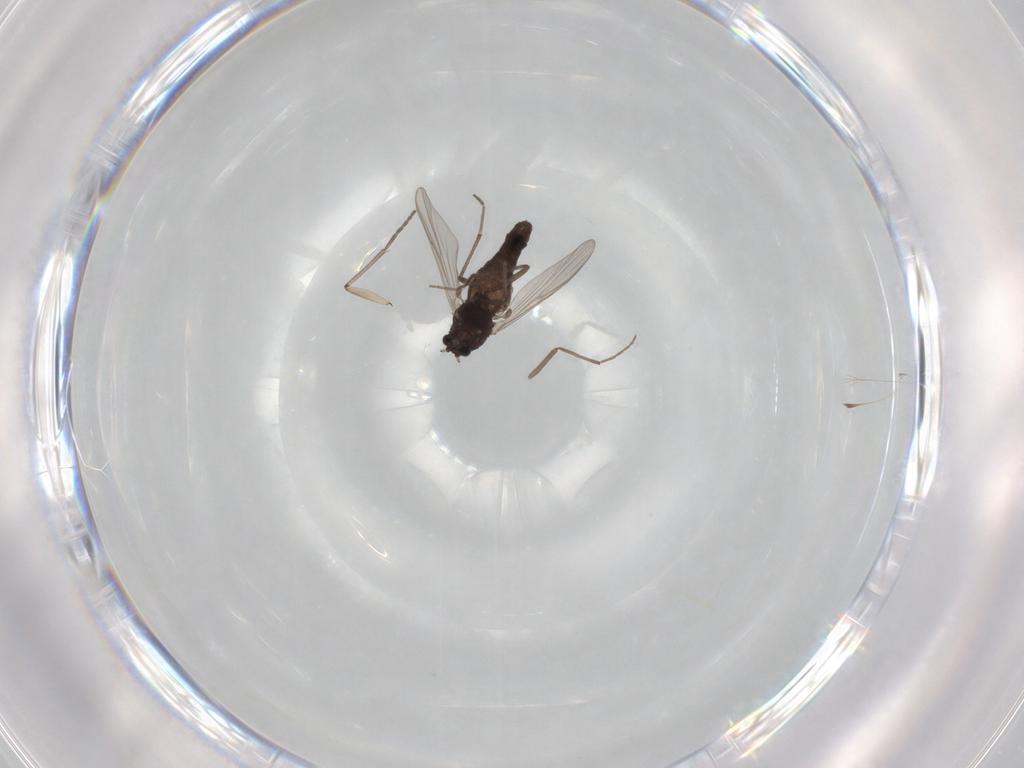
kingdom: Animalia
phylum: Arthropoda
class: Insecta
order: Diptera
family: Chironomidae
